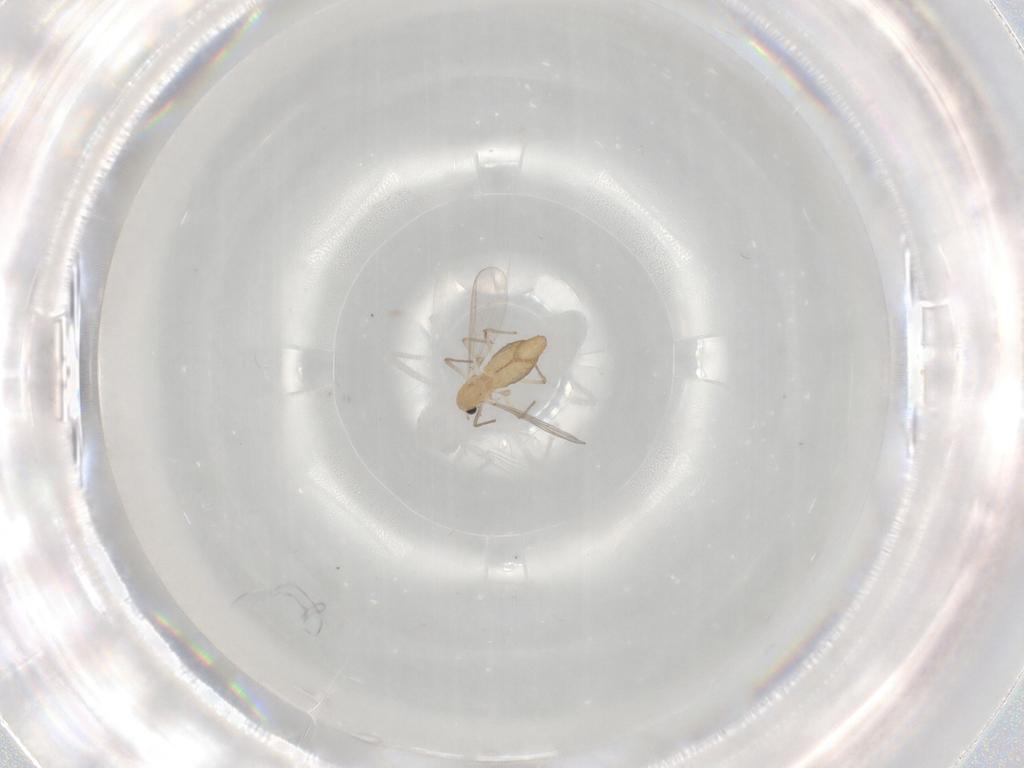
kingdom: Animalia
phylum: Arthropoda
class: Insecta
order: Diptera
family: Chironomidae
